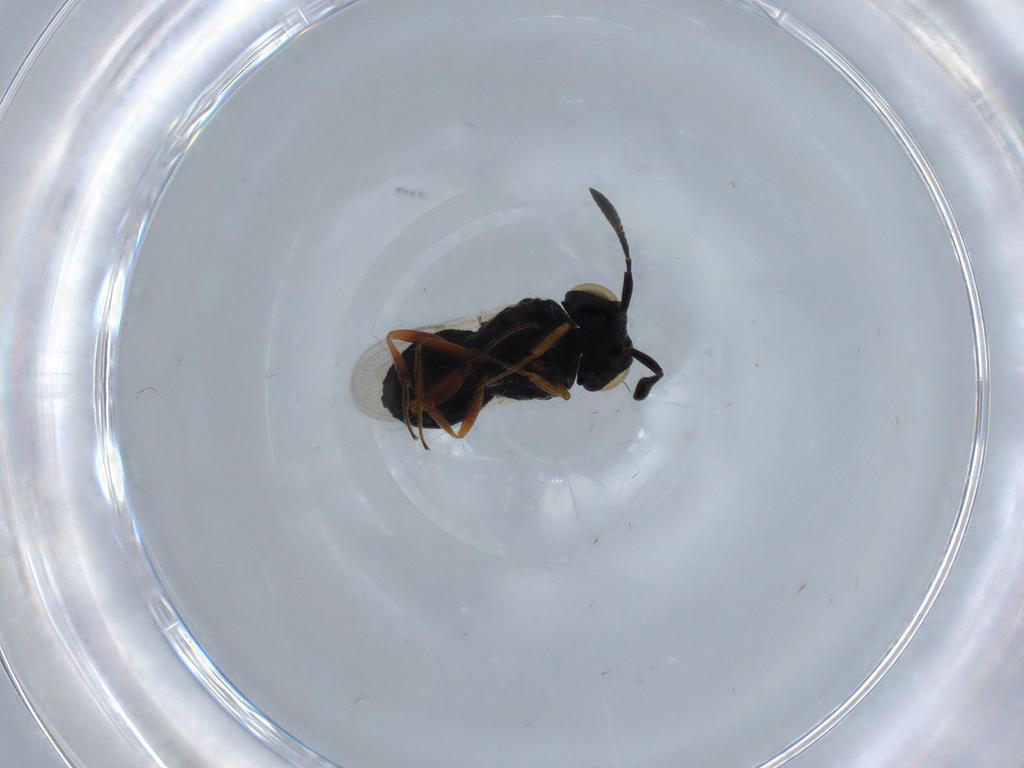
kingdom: Animalia
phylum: Arthropoda
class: Insecta
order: Hymenoptera
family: Scelionidae
